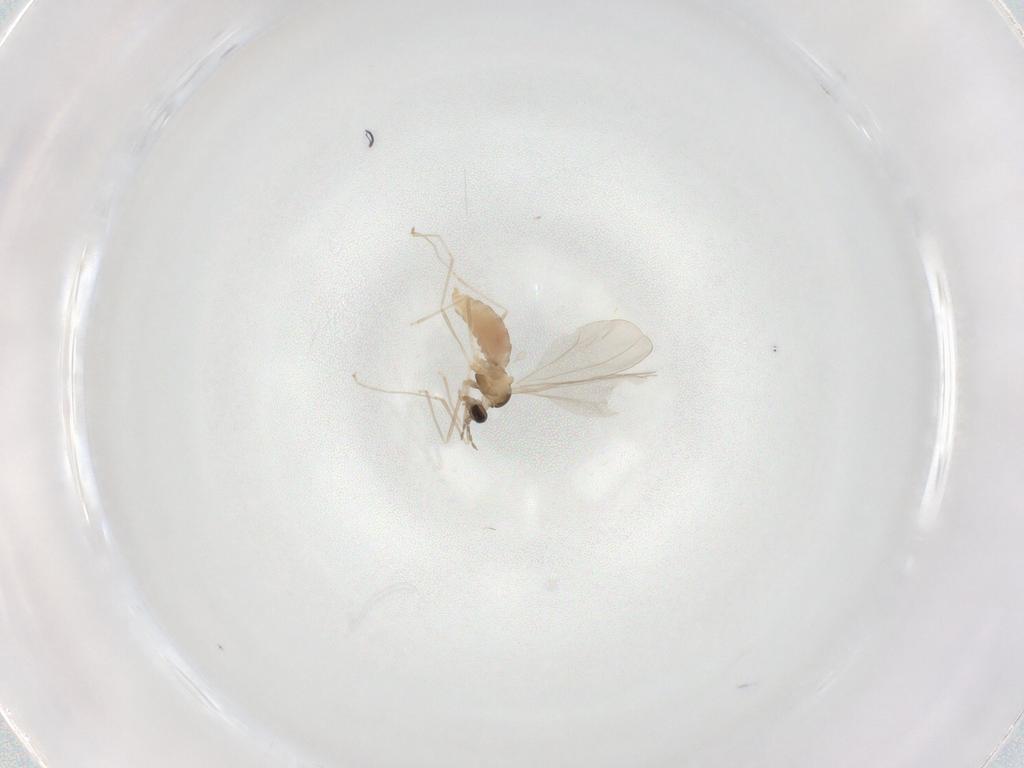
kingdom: Animalia
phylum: Arthropoda
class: Insecta
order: Diptera
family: Cecidomyiidae
